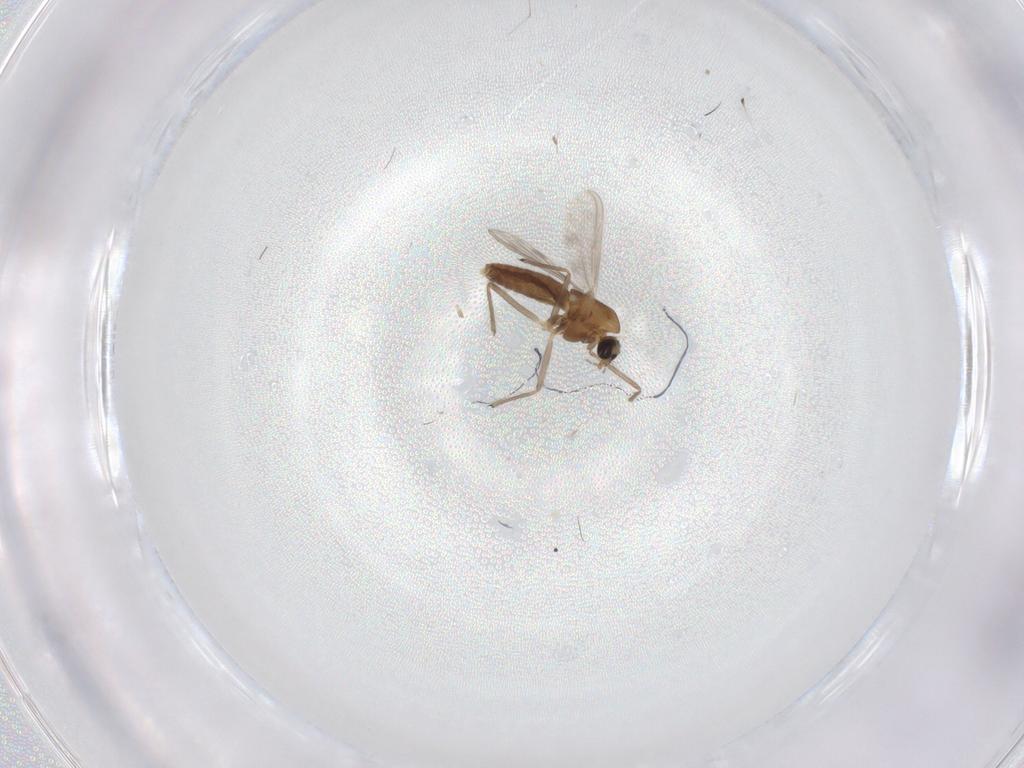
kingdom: Animalia
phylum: Arthropoda
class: Insecta
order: Diptera
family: Chironomidae
